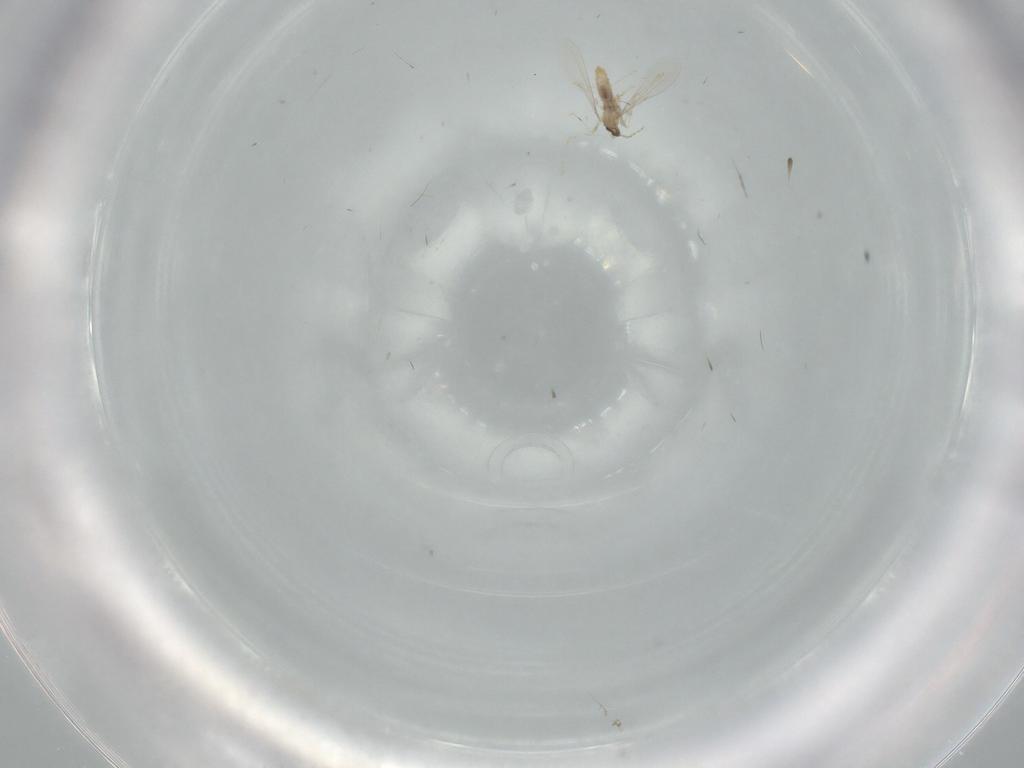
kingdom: Animalia
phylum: Arthropoda
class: Insecta
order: Diptera
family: Cecidomyiidae
